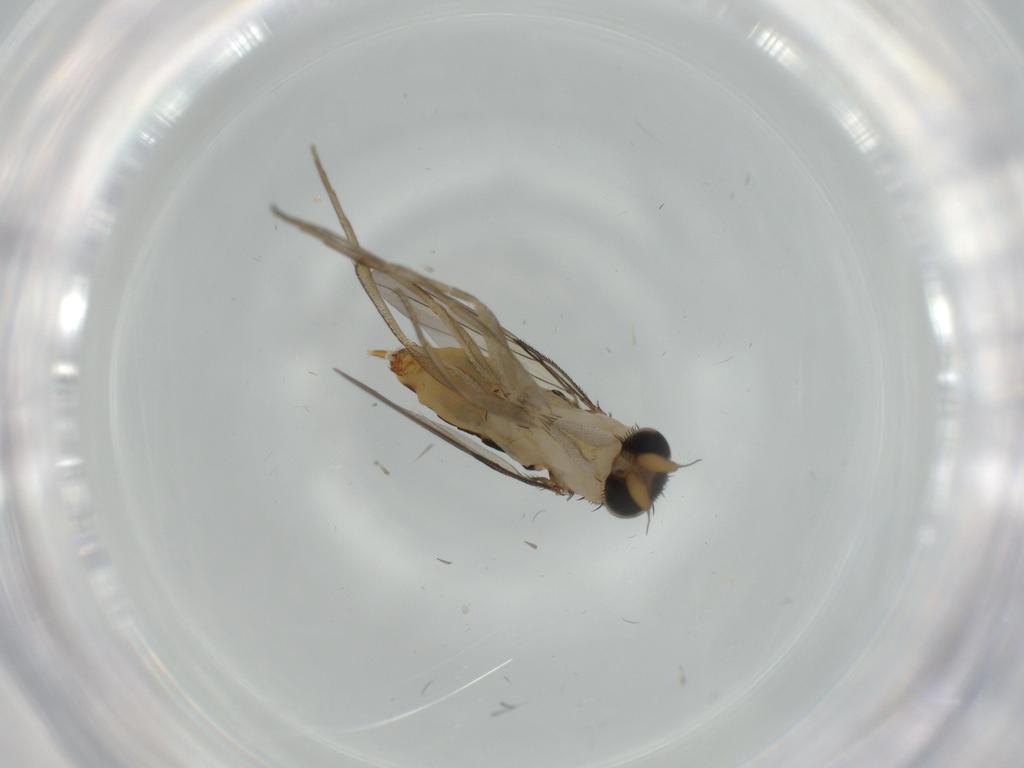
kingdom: Animalia
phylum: Arthropoda
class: Insecta
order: Diptera
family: Phoridae
